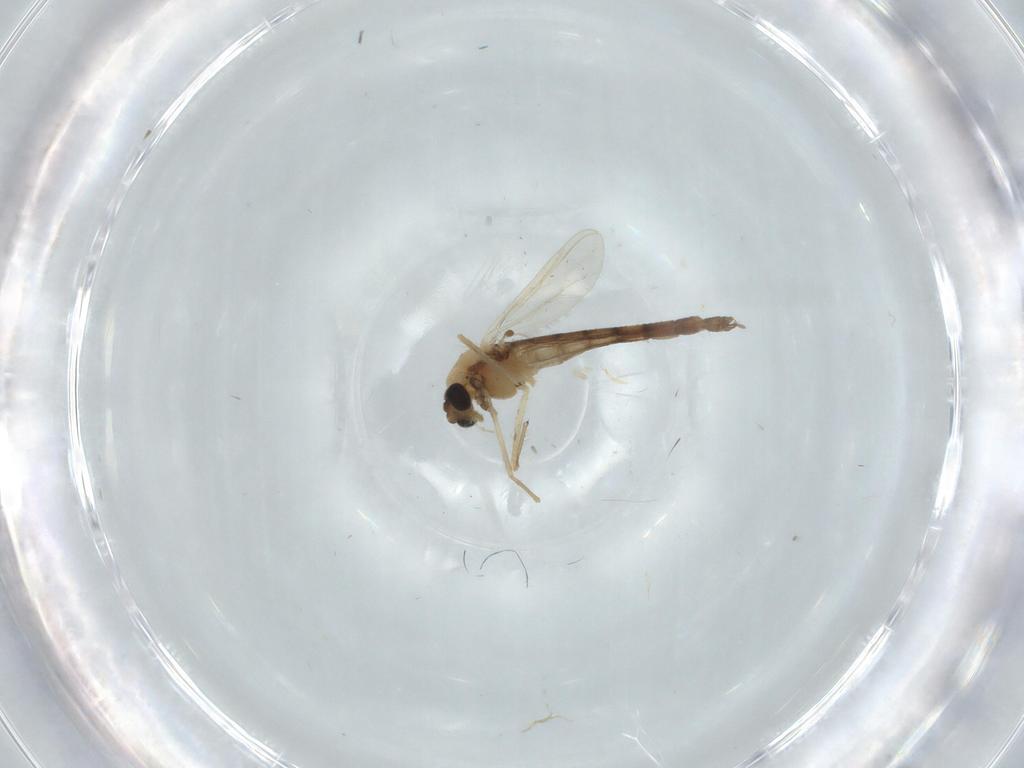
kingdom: Animalia
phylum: Arthropoda
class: Insecta
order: Diptera
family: Chironomidae
